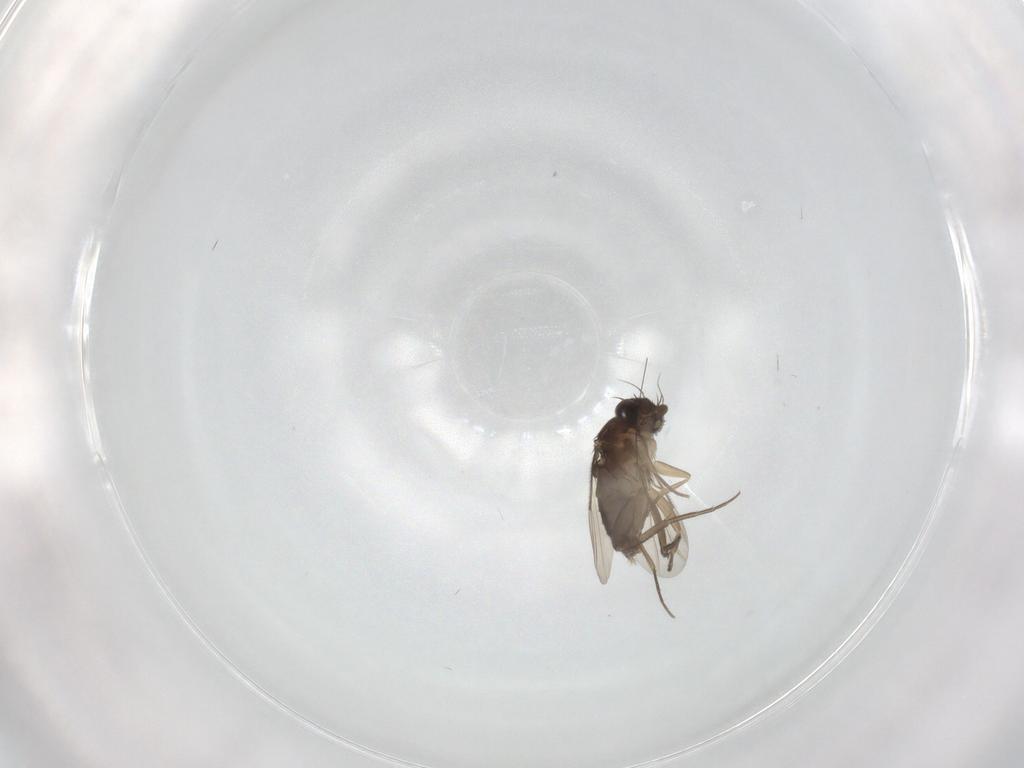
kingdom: Animalia
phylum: Arthropoda
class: Insecta
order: Diptera
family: Phoridae
